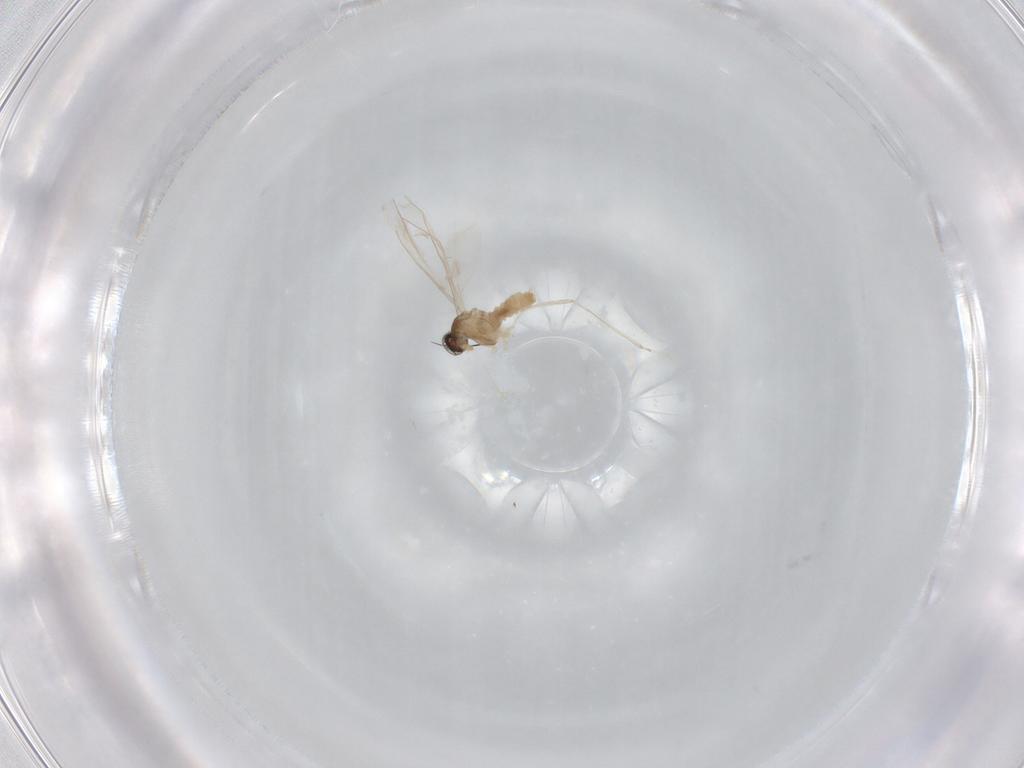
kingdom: Animalia
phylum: Arthropoda
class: Insecta
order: Diptera
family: Cecidomyiidae
